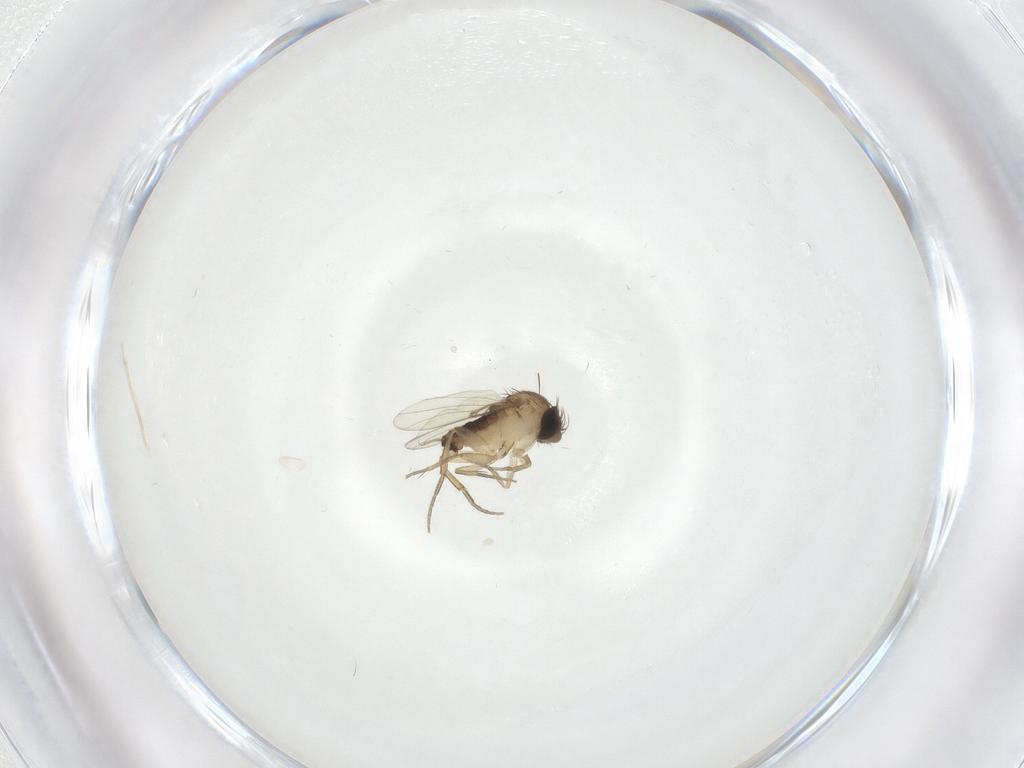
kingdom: Animalia
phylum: Arthropoda
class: Insecta
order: Diptera
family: Phoridae
